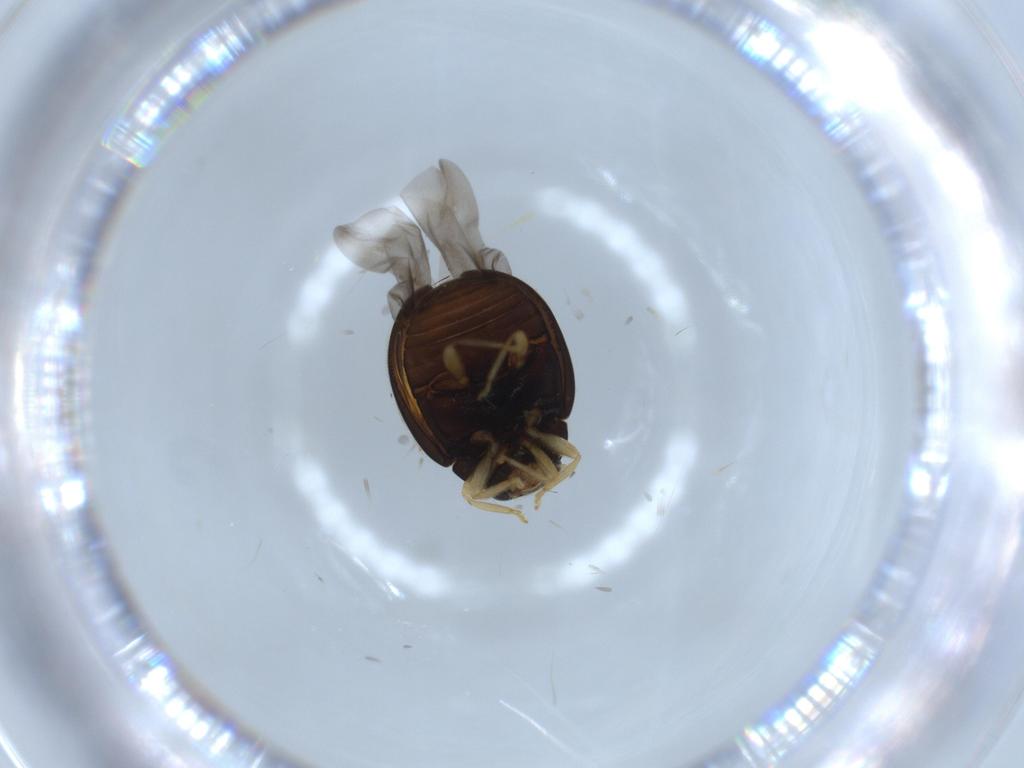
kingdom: Animalia
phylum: Arthropoda
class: Insecta
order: Coleoptera
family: Coccinellidae
